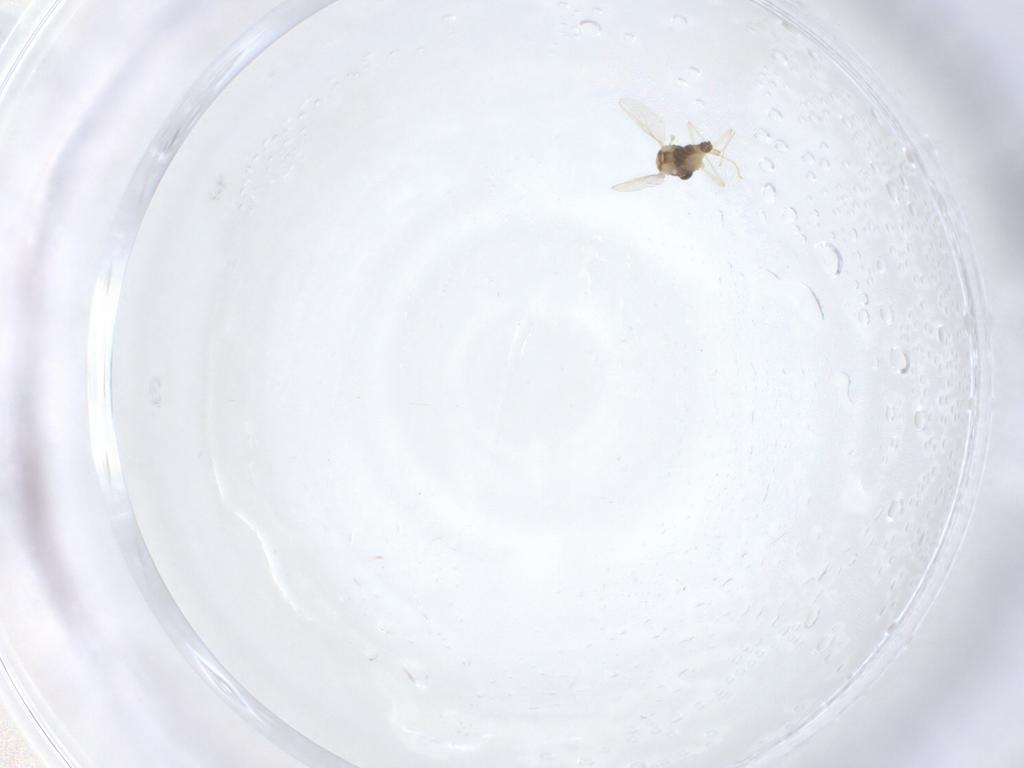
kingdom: Animalia
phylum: Arthropoda
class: Insecta
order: Diptera
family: Chironomidae
